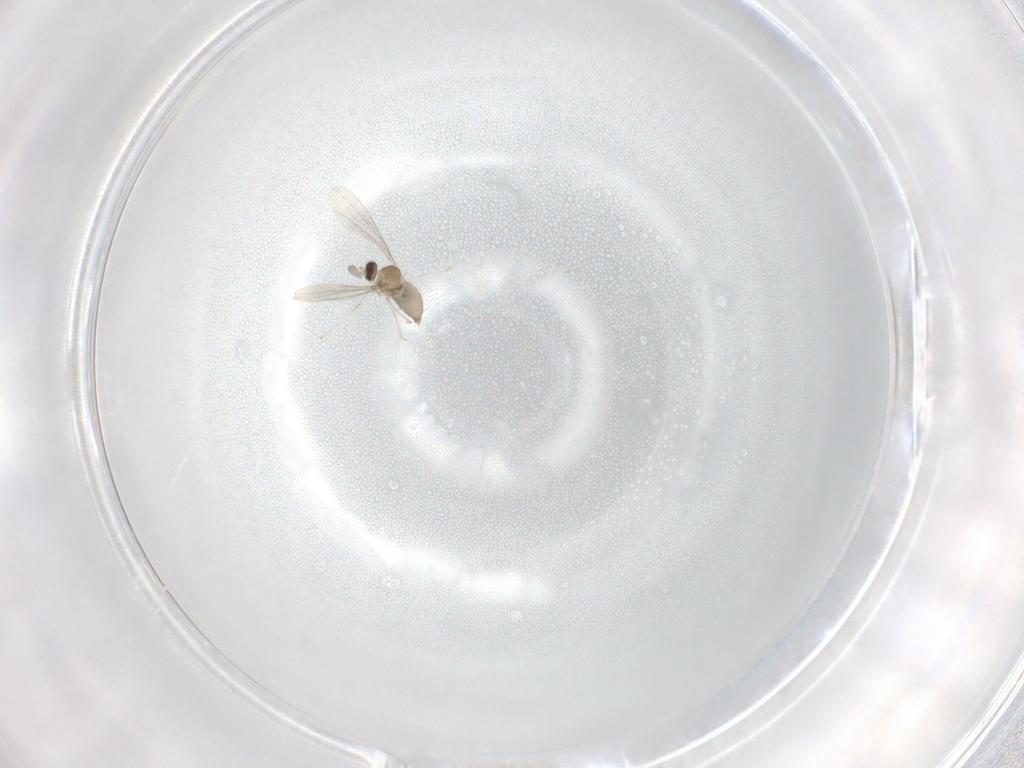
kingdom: Animalia
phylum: Arthropoda
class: Insecta
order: Diptera
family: Cecidomyiidae
